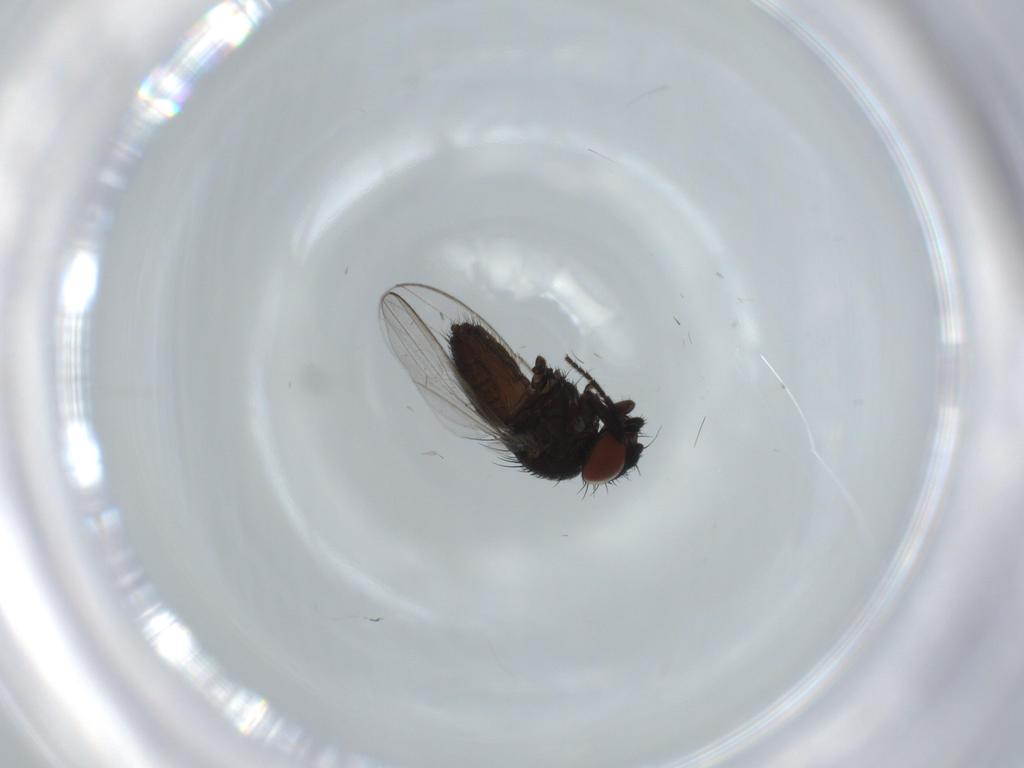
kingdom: Animalia
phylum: Arthropoda
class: Insecta
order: Diptera
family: Milichiidae
